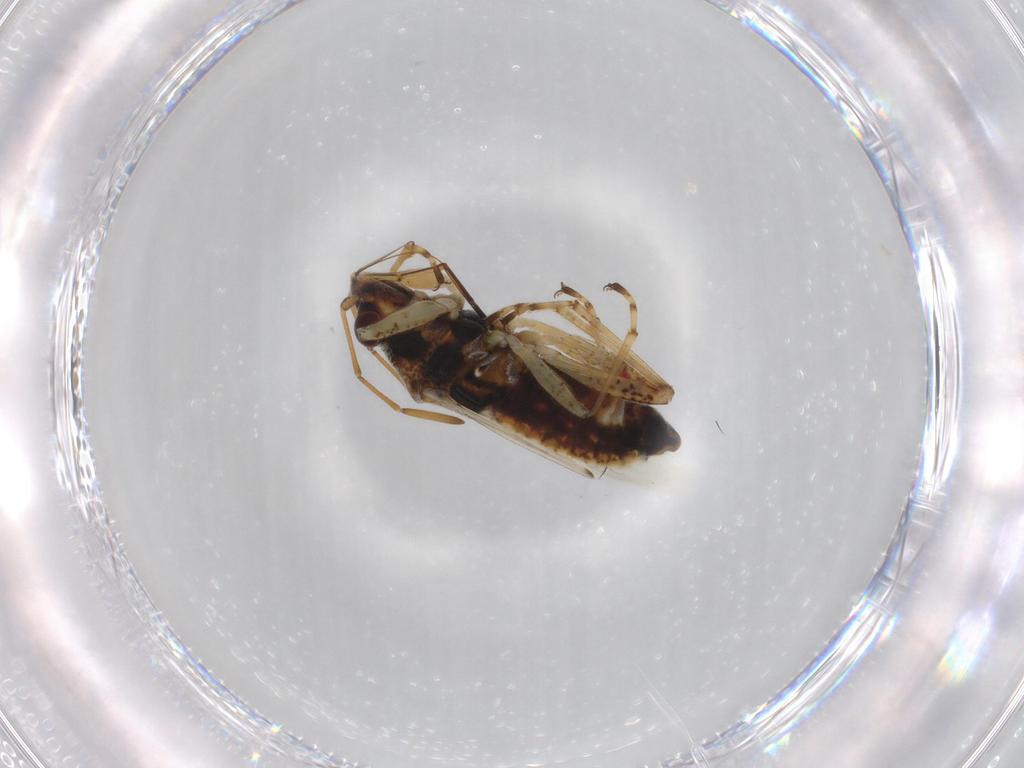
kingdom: Animalia
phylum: Arthropoda
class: Insecta
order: Hemiptera
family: Lygaeidae
